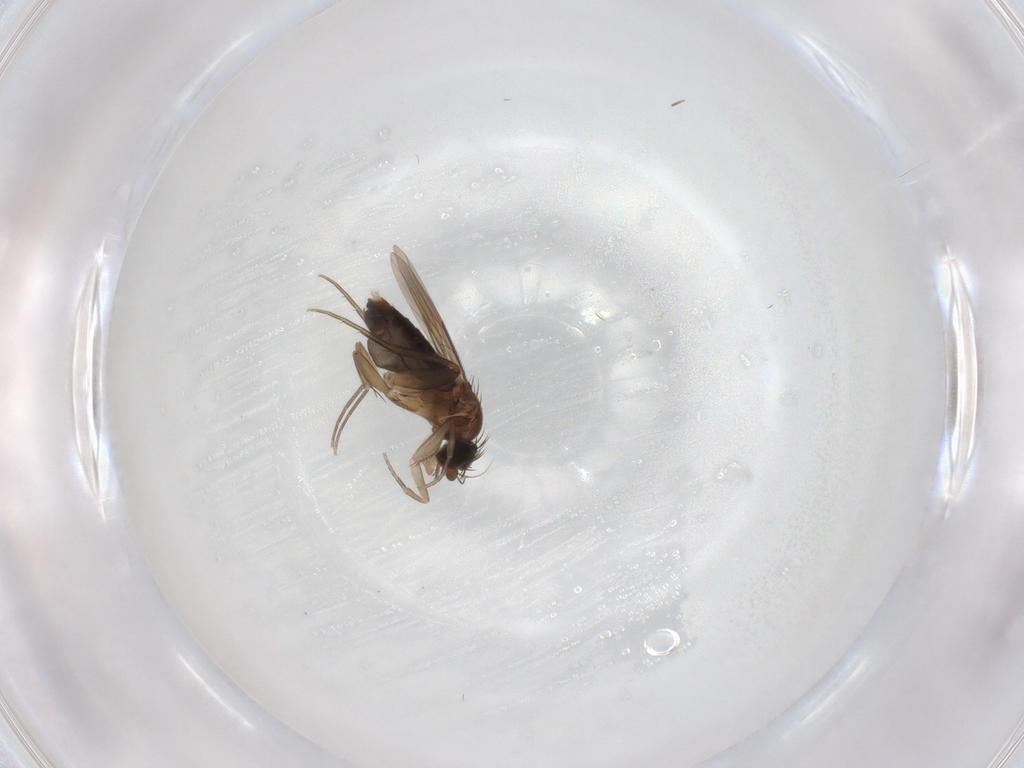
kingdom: Animalia
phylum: Arthropoda
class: Insecta
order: Diptera
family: Phoridae
